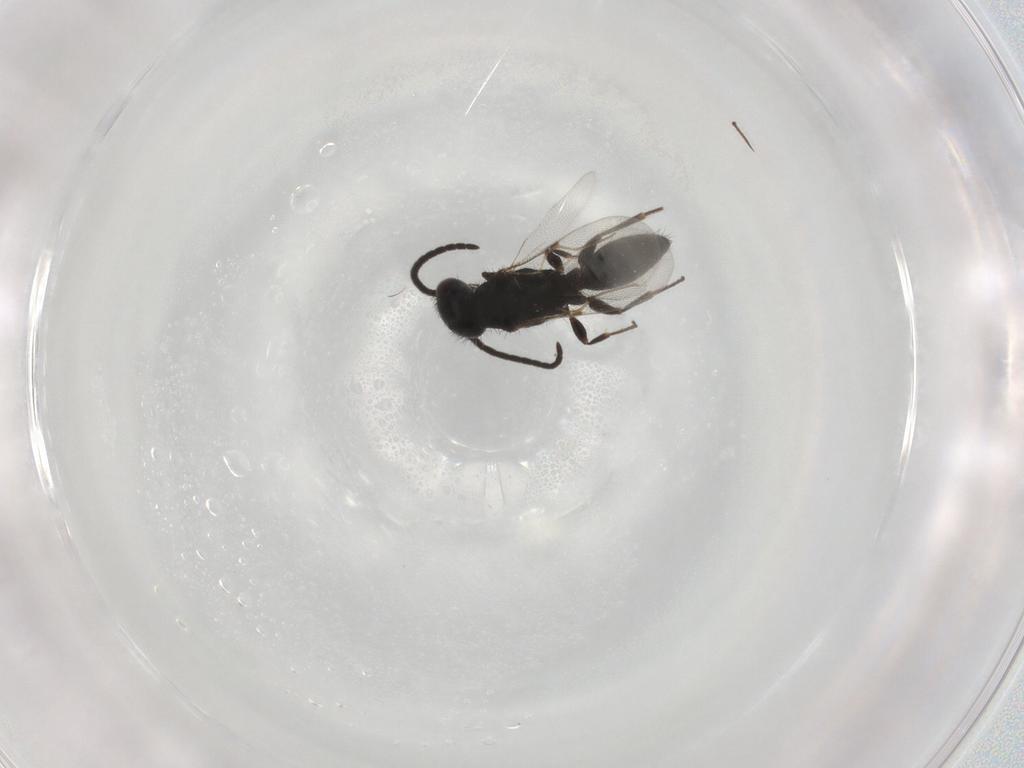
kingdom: Animalia
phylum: Arthropoda
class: Insecta
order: Hymenoptera
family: Bethylidae
